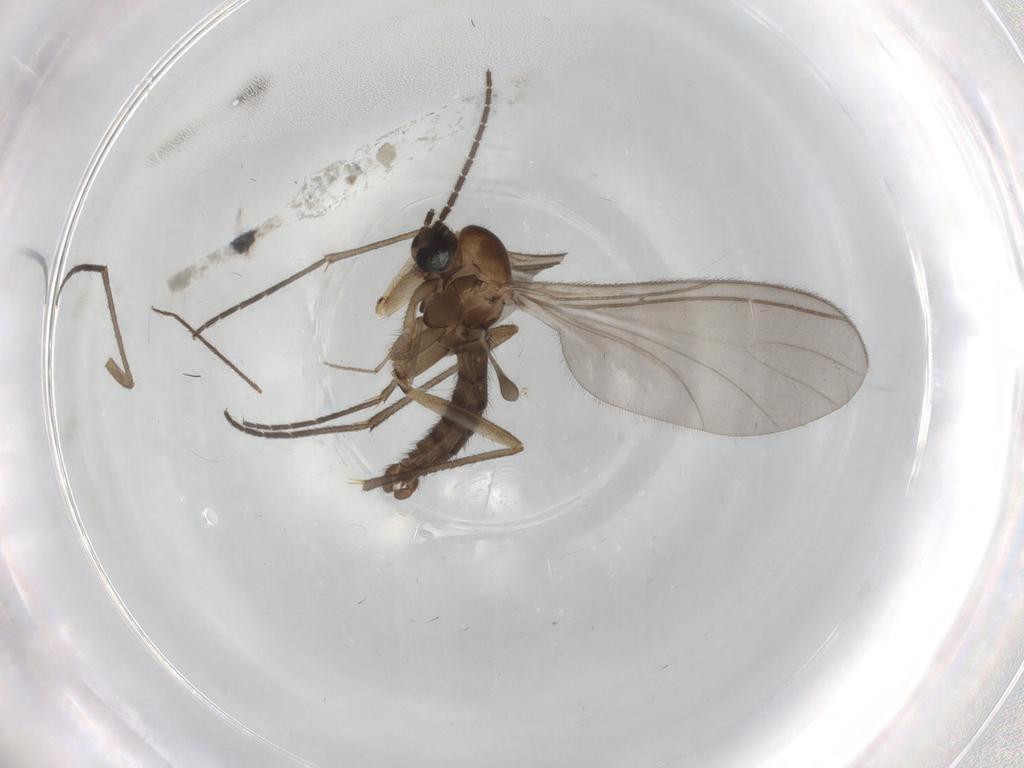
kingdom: Animalia
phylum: Arthropoda
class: Insecta
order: Diptera
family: Sciaridae
